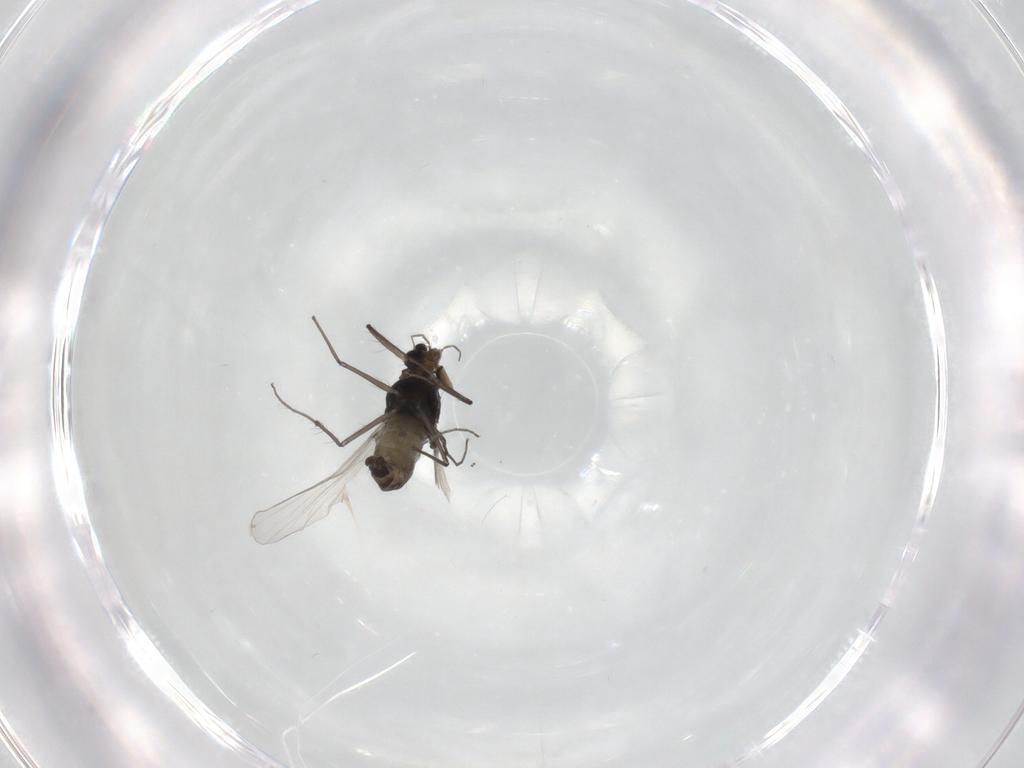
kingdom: Animalia
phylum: Arthropoda
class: Insecta
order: Diptera
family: Chironomidae
